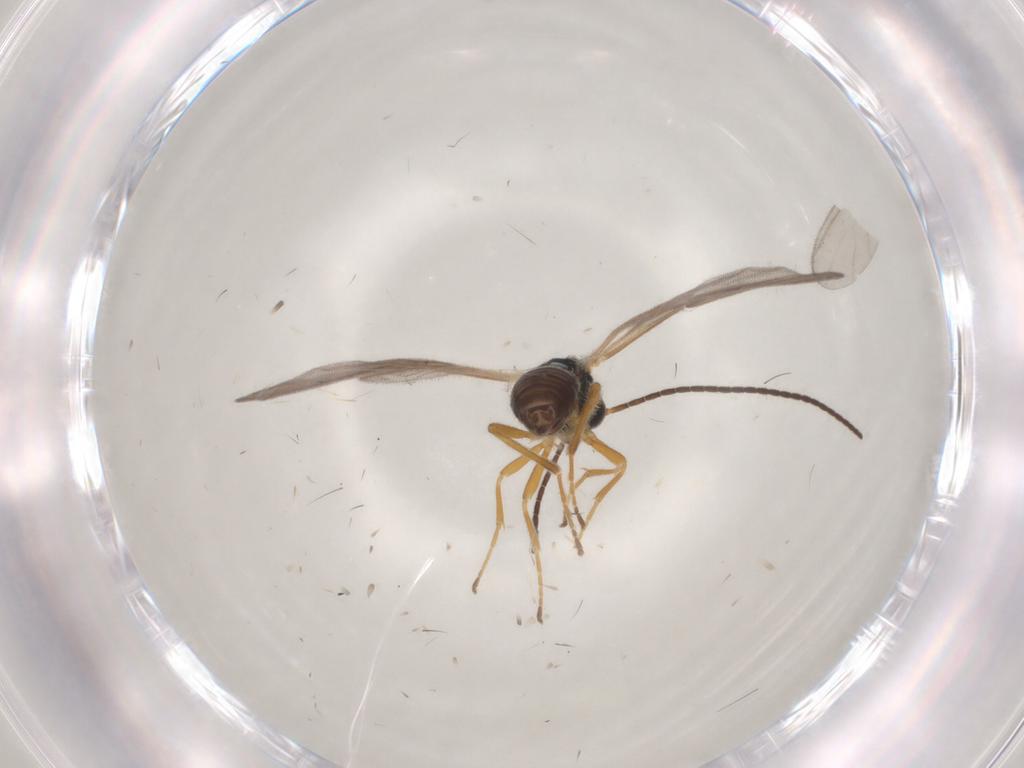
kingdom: Animalia
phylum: Arthropoda
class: Insecta
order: Hymenoptera
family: Braconidae
